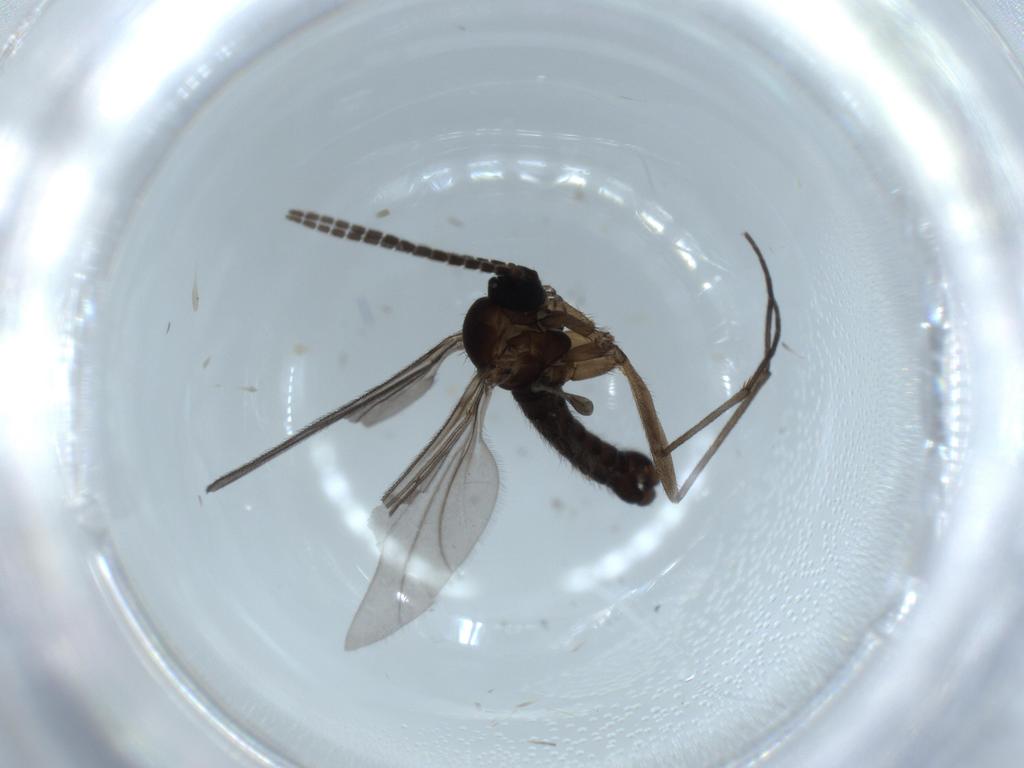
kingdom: Animalia
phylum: Arthropoda
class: Insecta
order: Diptera
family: Sciaridae
